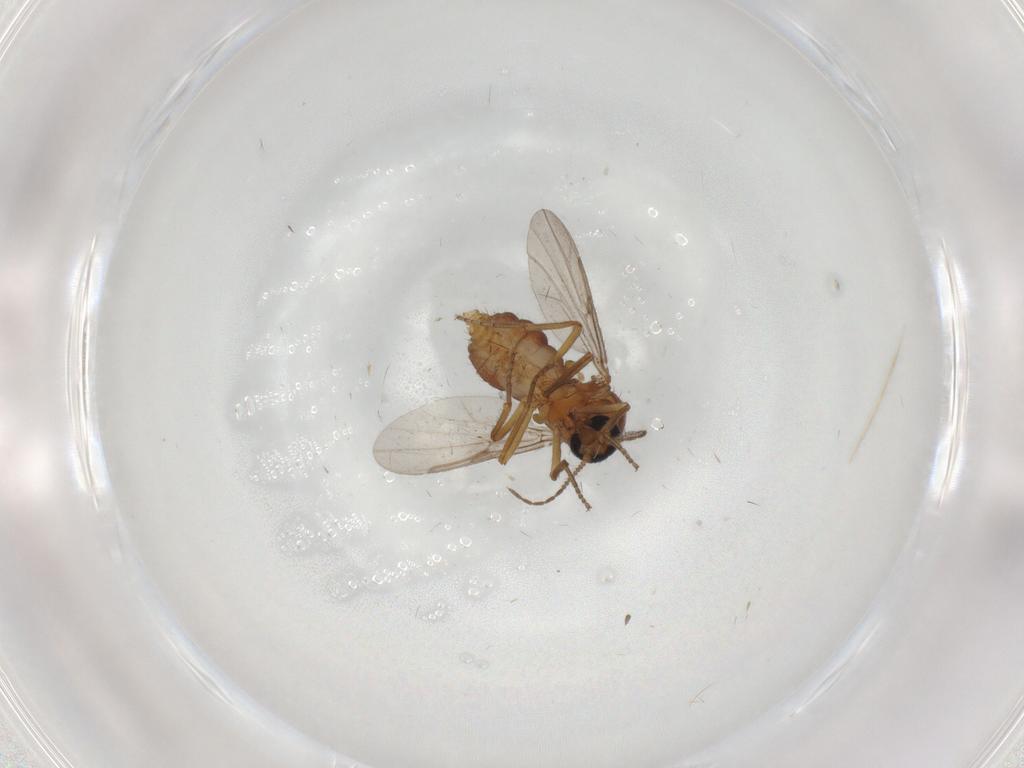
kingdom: Animalia
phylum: Arthropoda
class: Insecta
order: Diptera
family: Ceratopogonidae
